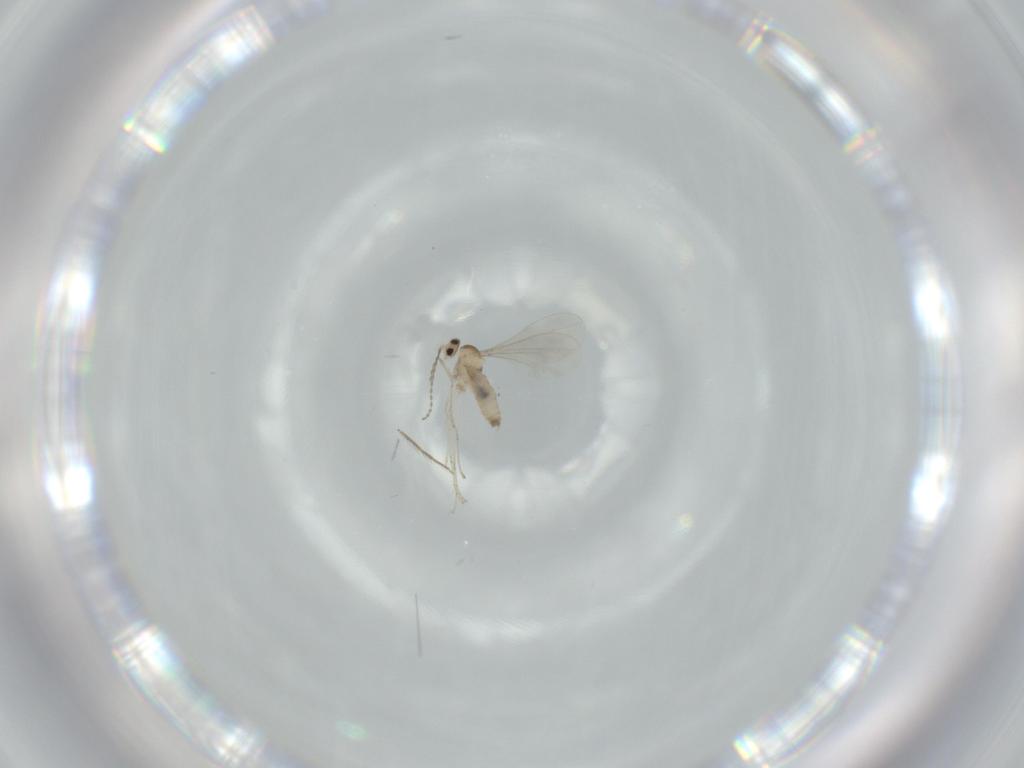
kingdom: Animalia
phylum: Arthropoda
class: Insecta
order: Diptera
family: Cecidomyiidae
